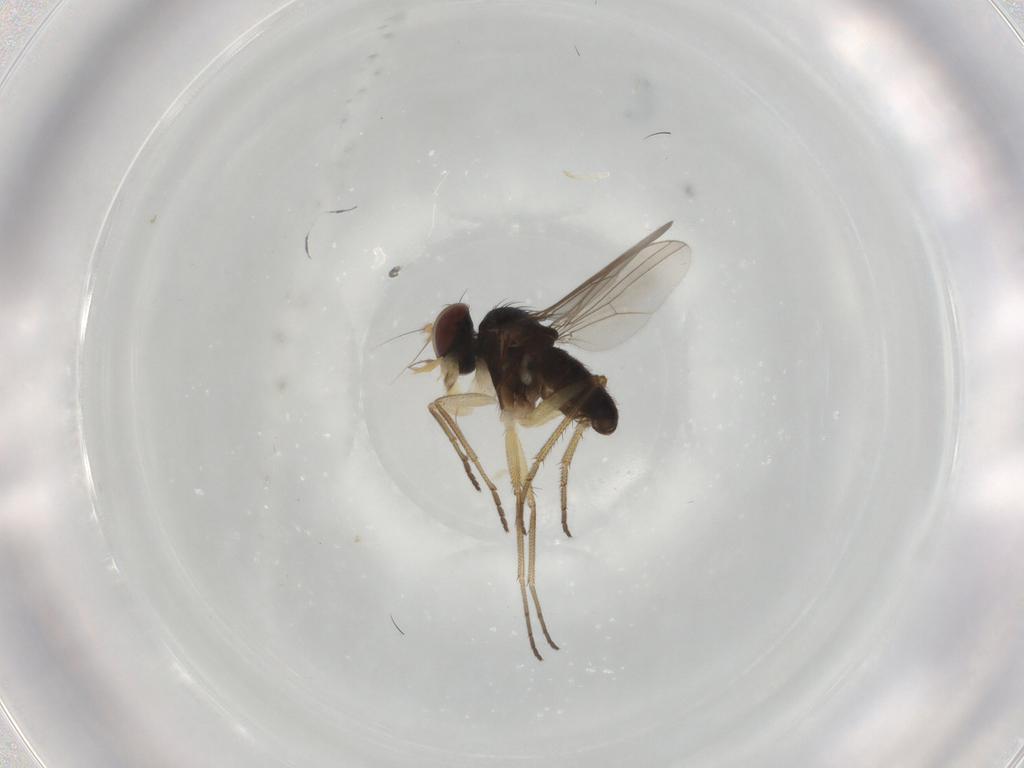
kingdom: Animalia
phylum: Arthropoda
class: Insecta
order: Diptera
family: Dolichopodidae
